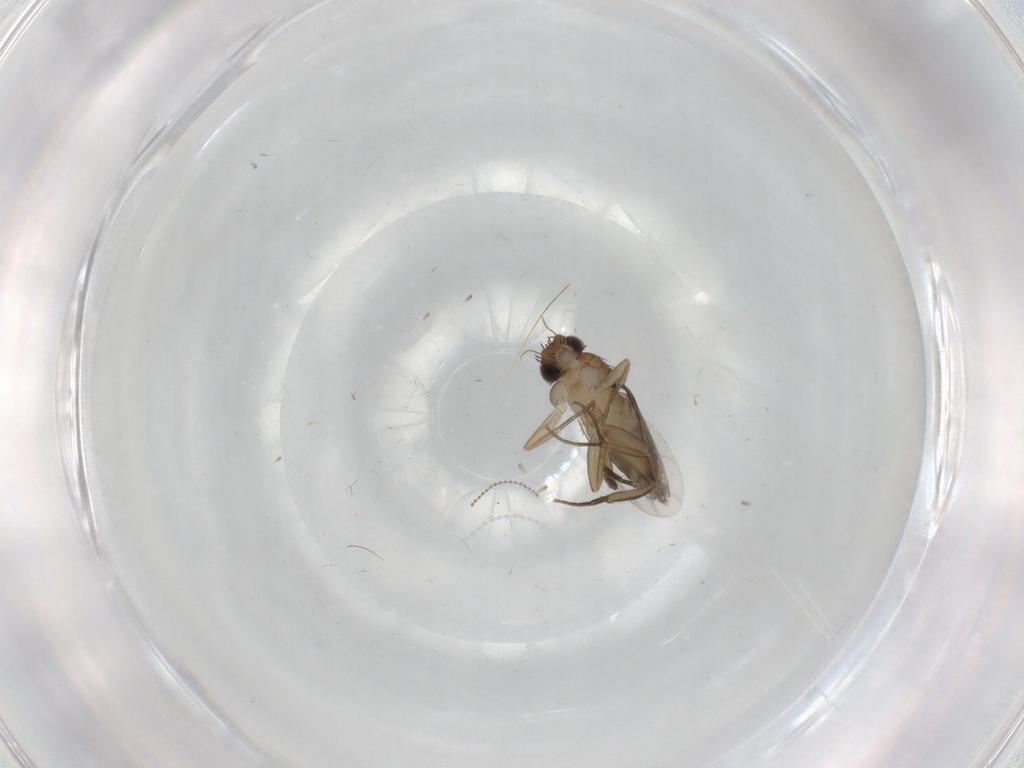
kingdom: Animalia
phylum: Arthropoda
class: Insecta
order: Diptera
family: Phoridae
